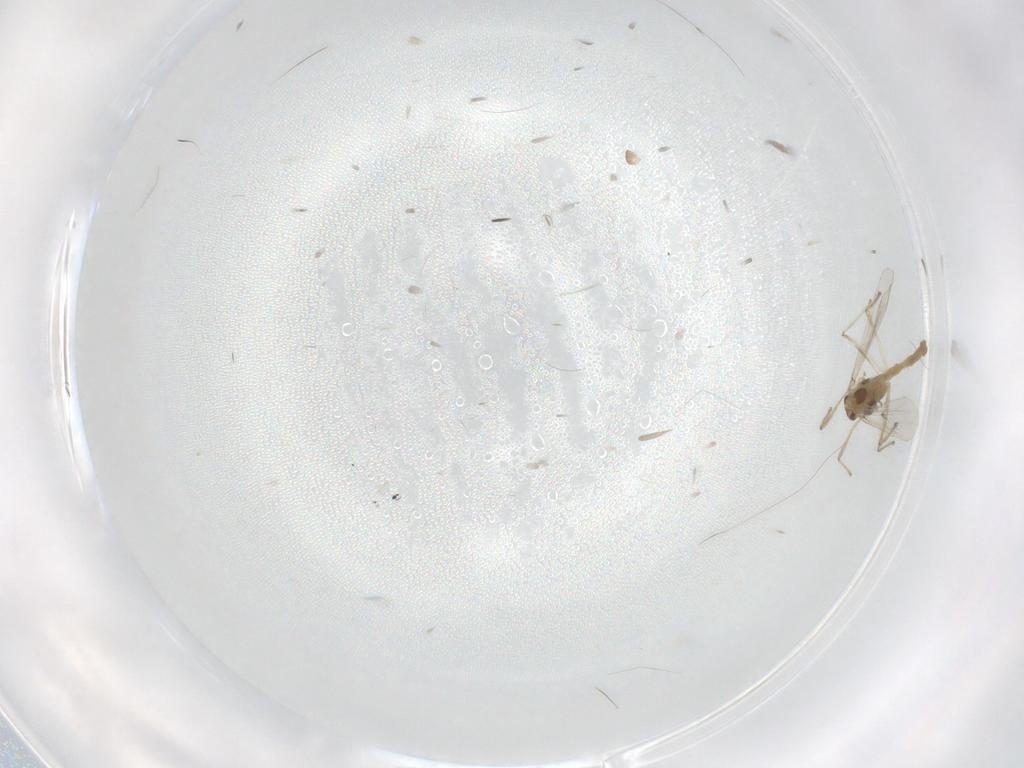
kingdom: Animalia
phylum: Arthropoda
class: Insecta
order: Diptera
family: Chironomidae
